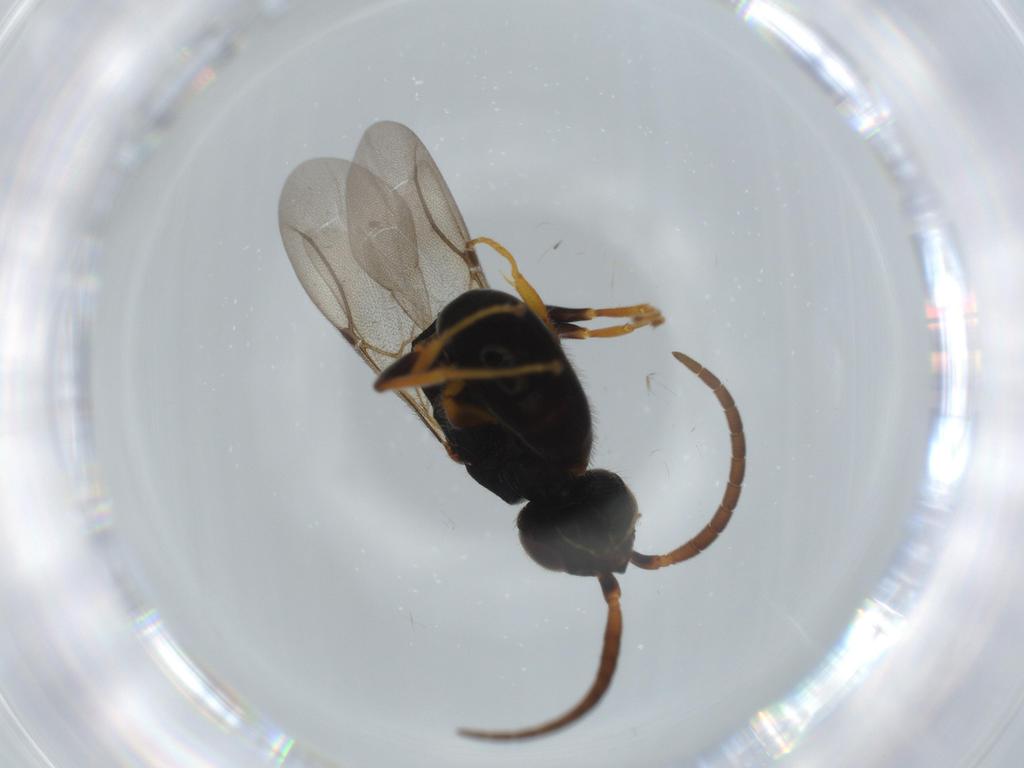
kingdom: Animalia
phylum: Arthropoda
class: Insecta
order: Hymenoptera
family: Bethylidae
